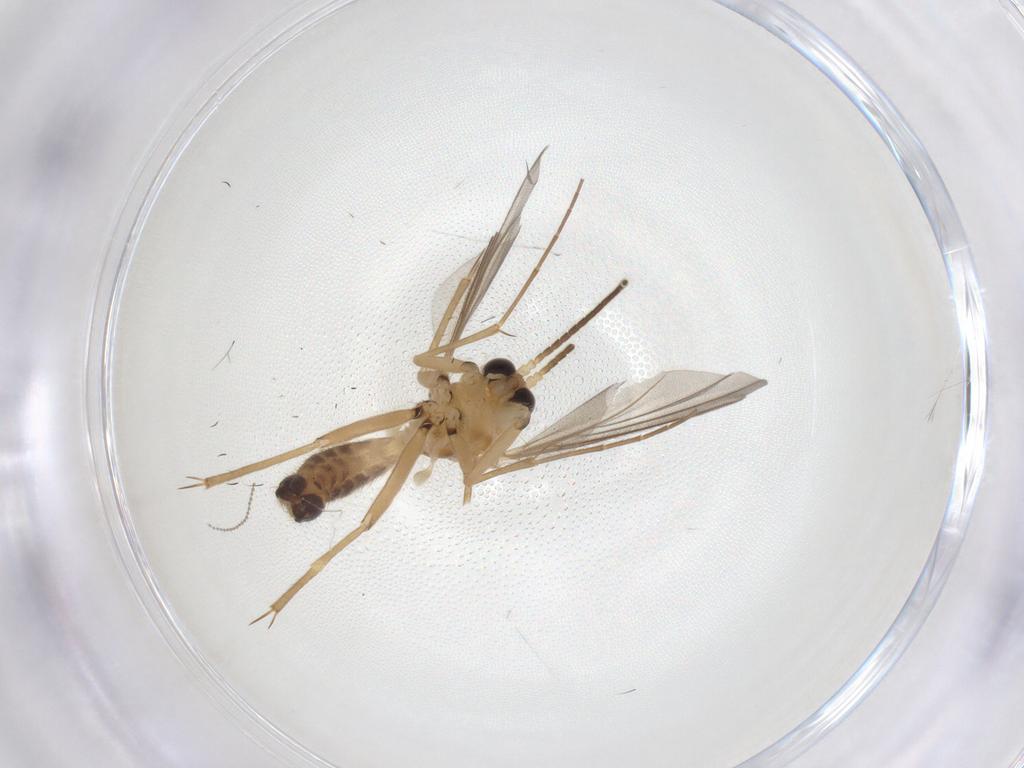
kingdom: Animalia
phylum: Arthropoda
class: Insecta
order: Diptera
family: Mycetophilidae
